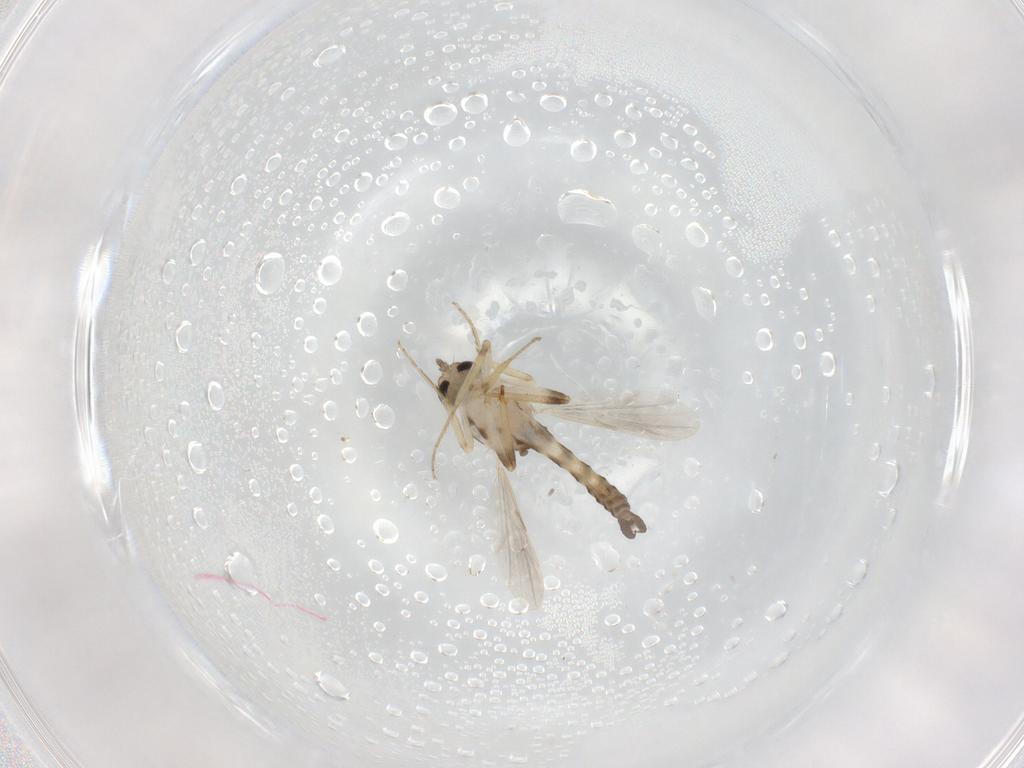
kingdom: Animalia
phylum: Arthropoda
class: Insecta
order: Diptera
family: Ceratopogonidae
